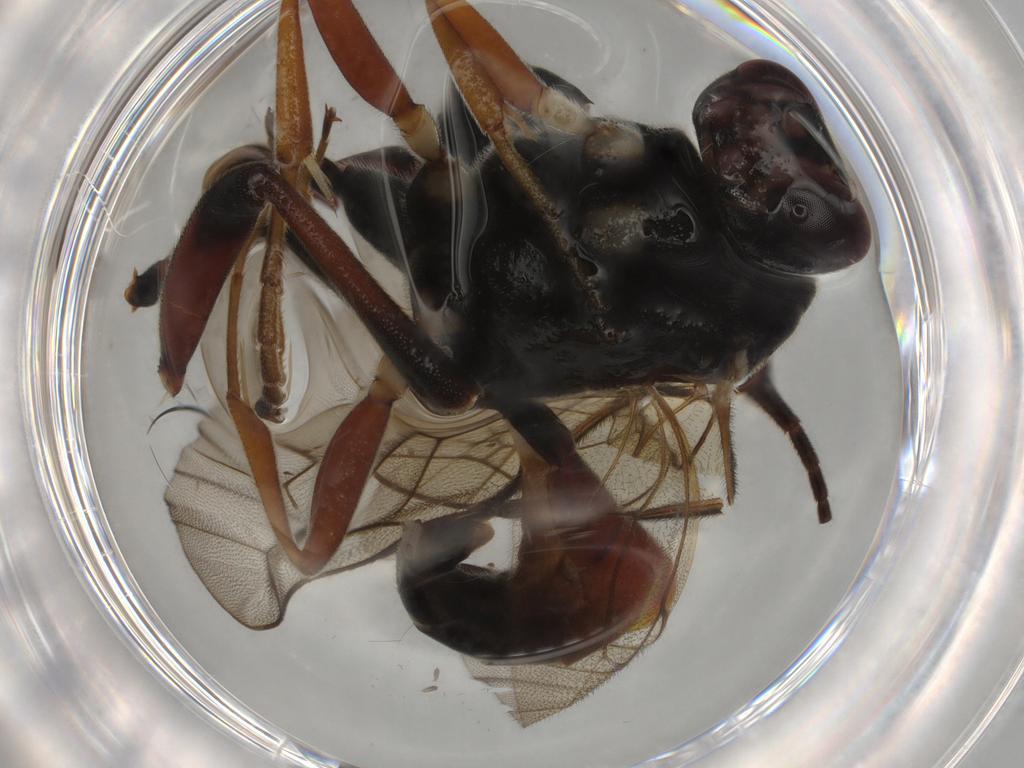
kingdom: Animalia
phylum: Arthropoda
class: Insecta
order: Hymenoptera
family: Ichneumonidae
